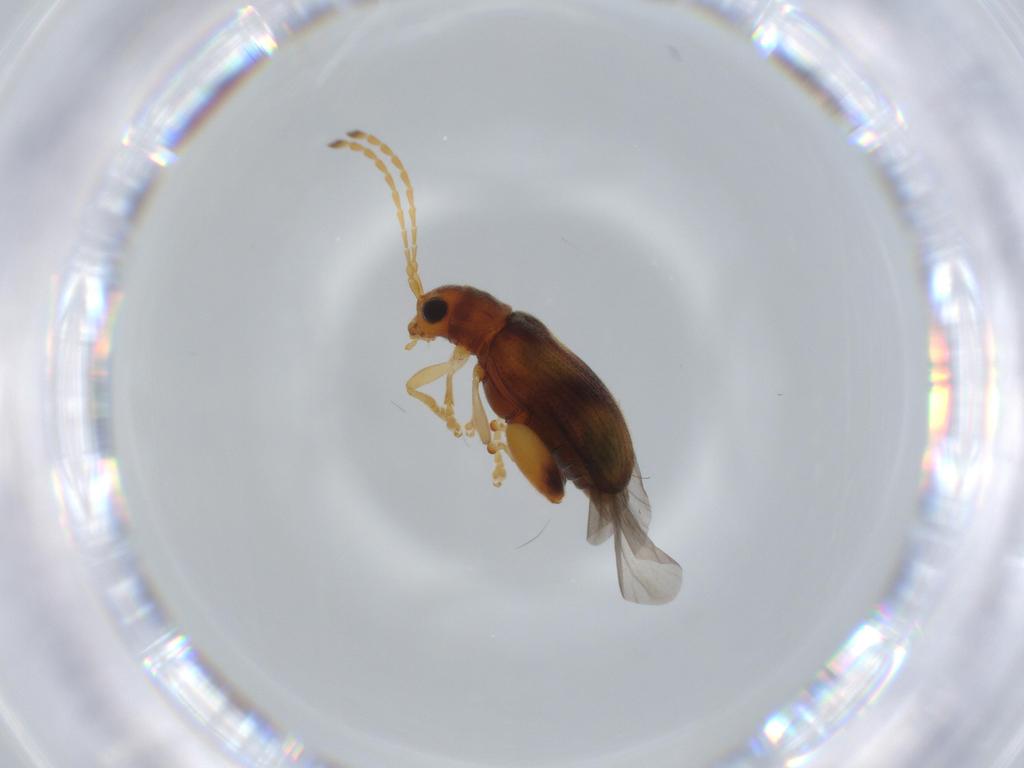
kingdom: Animalia
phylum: Arthropoda
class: Insecta
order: Coleoptera
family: Chrysomelidae
